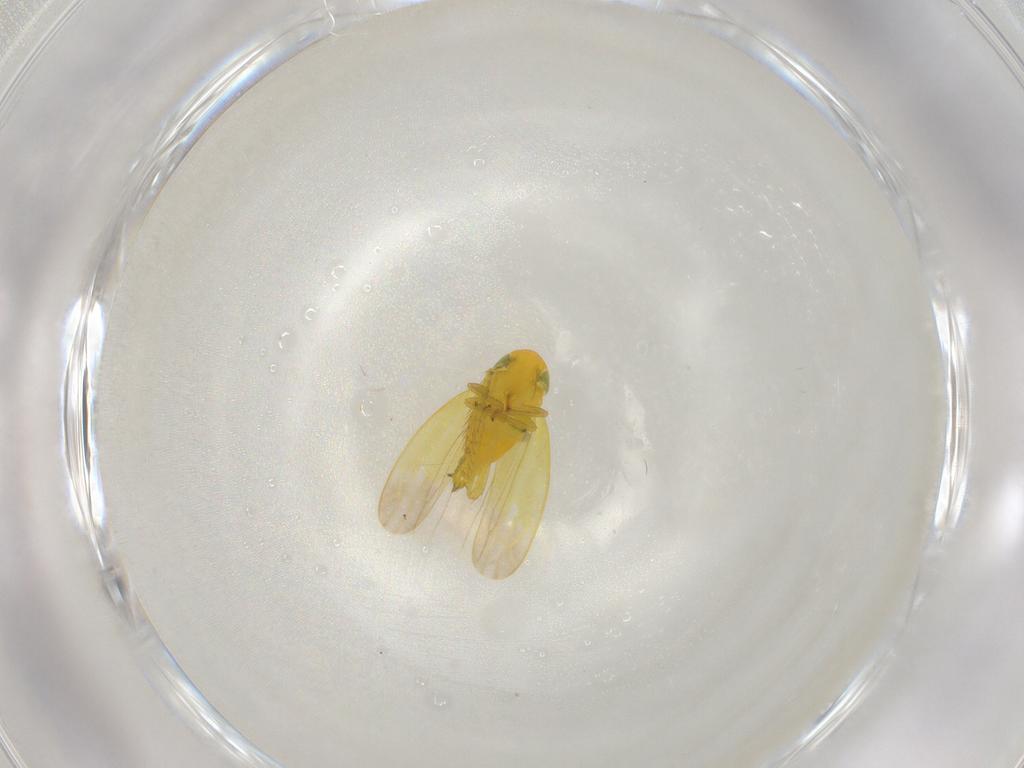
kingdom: Animalia
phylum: Arthropoda
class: Insecta
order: Hemiptera
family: Cicadellidae
